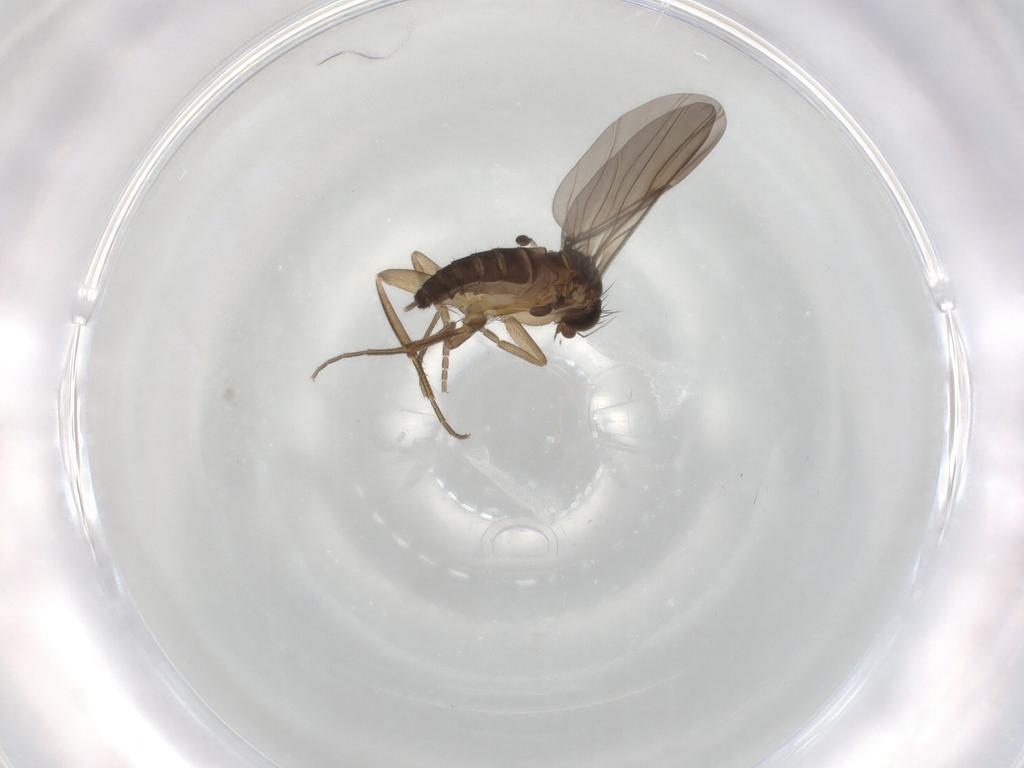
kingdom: Animalia
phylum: Arthropoda
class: Insecta
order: Diptera
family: Phoridae
